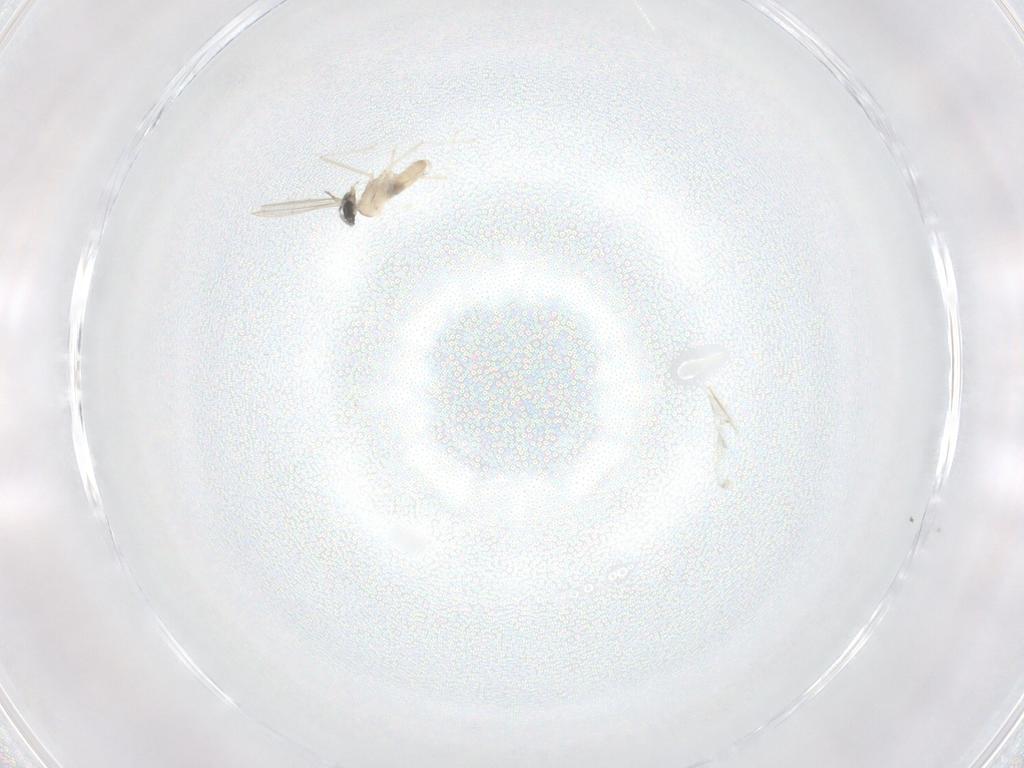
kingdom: Animalia
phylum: Arthropoda
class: Insecta
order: Diptera
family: Cecidomyiidae
